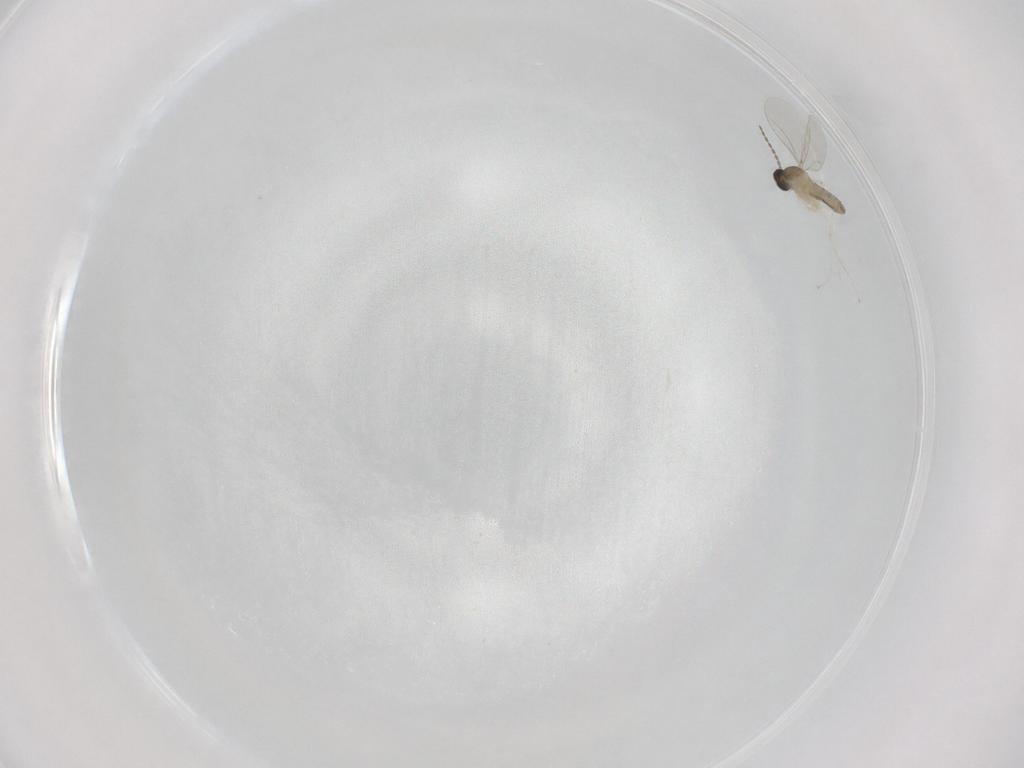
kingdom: Animalia
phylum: Arthropoda
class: Insecta
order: Diptera
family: Cecidomyiidae
